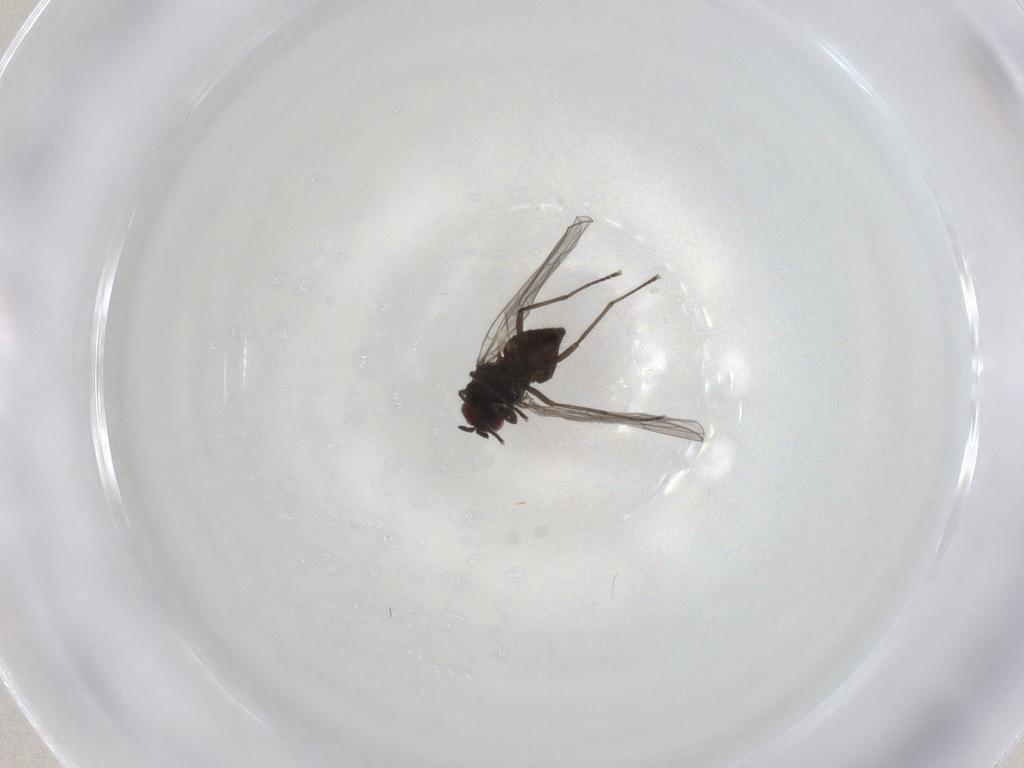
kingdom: Animalia
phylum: Arthropoda
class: Insecta
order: Diptera
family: Bombyliidae
